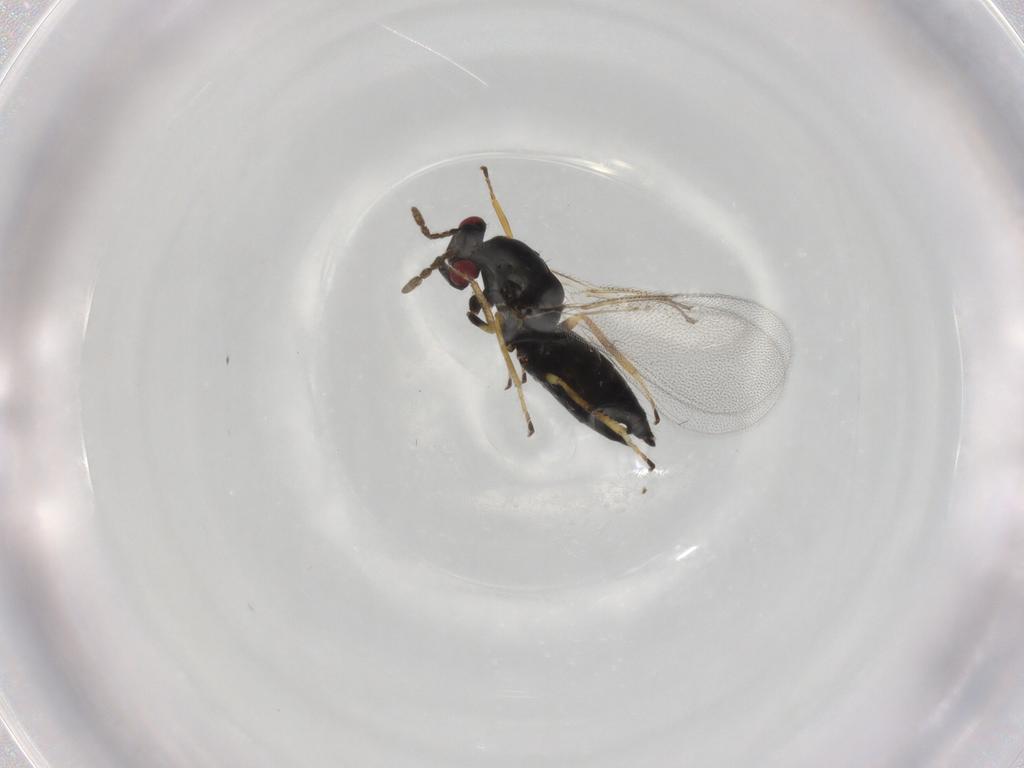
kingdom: Animalia
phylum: Arthropoda
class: Insecta
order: Hymenoptera
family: Eulophidae
